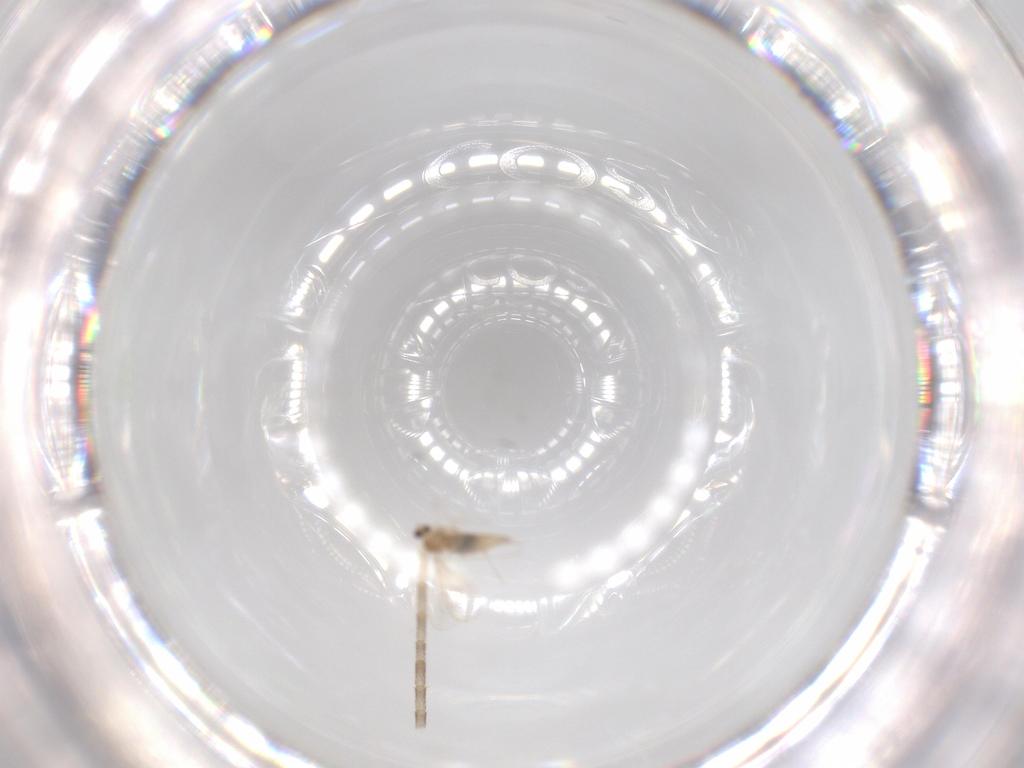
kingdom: Animalia
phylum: Arthropoda
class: Insecta
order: Diptera
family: Cecidomyiidae
